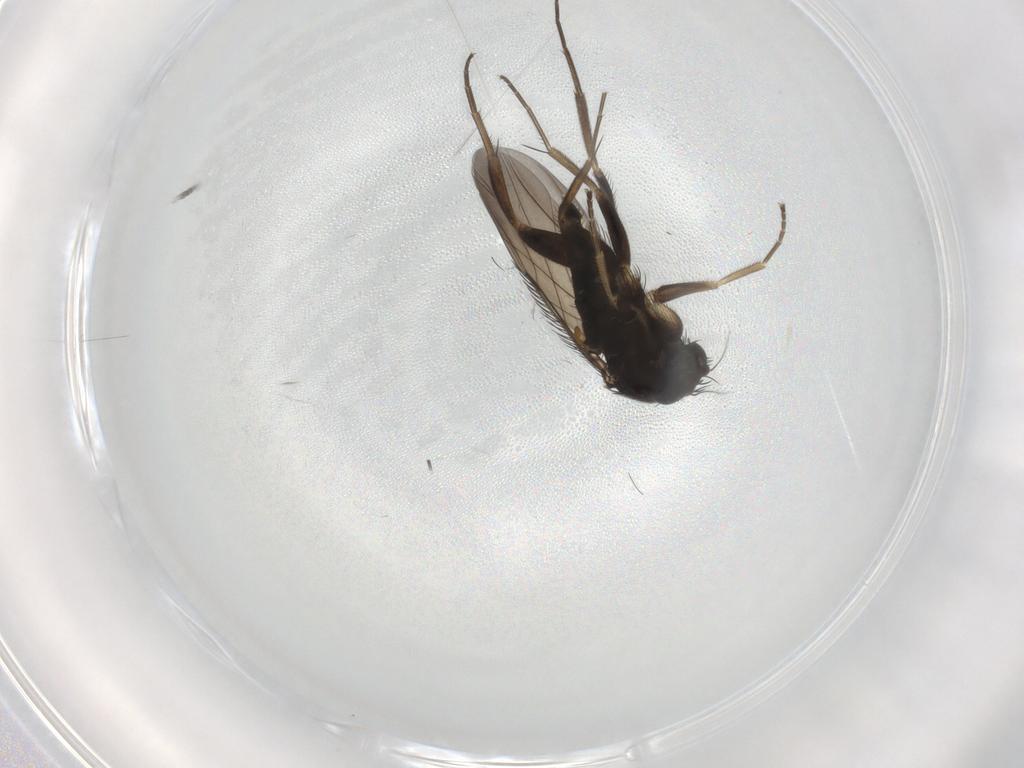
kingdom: Animalia
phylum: Arthropoda
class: Insecta
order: Diptera
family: Phoridae
